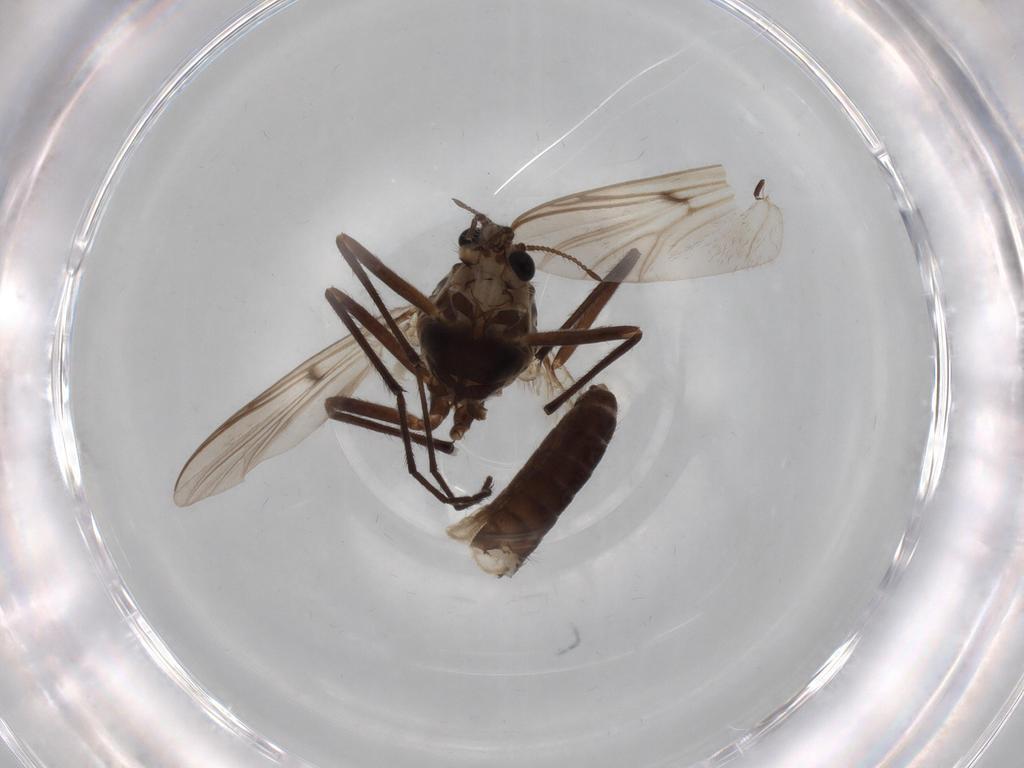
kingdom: Animalia
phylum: Arthropoda
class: Insecta
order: Diptera
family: Chironomidae
